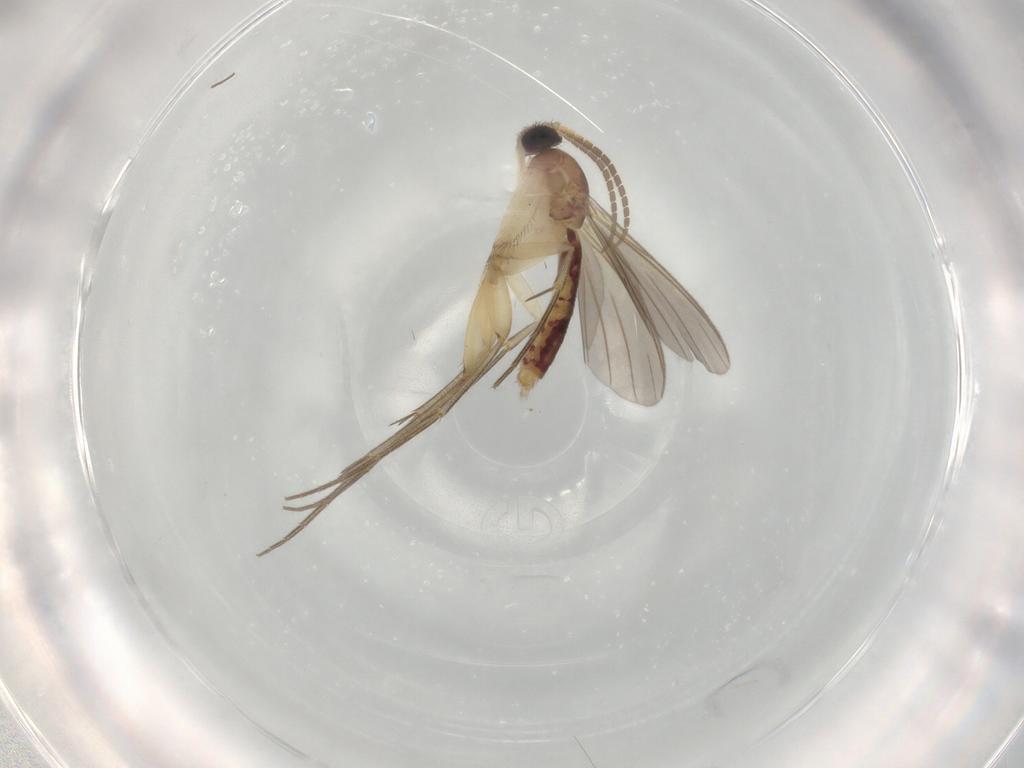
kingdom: Animalia
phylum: Arthropoda
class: Insecta
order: Diptera
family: Mycetophilidae
